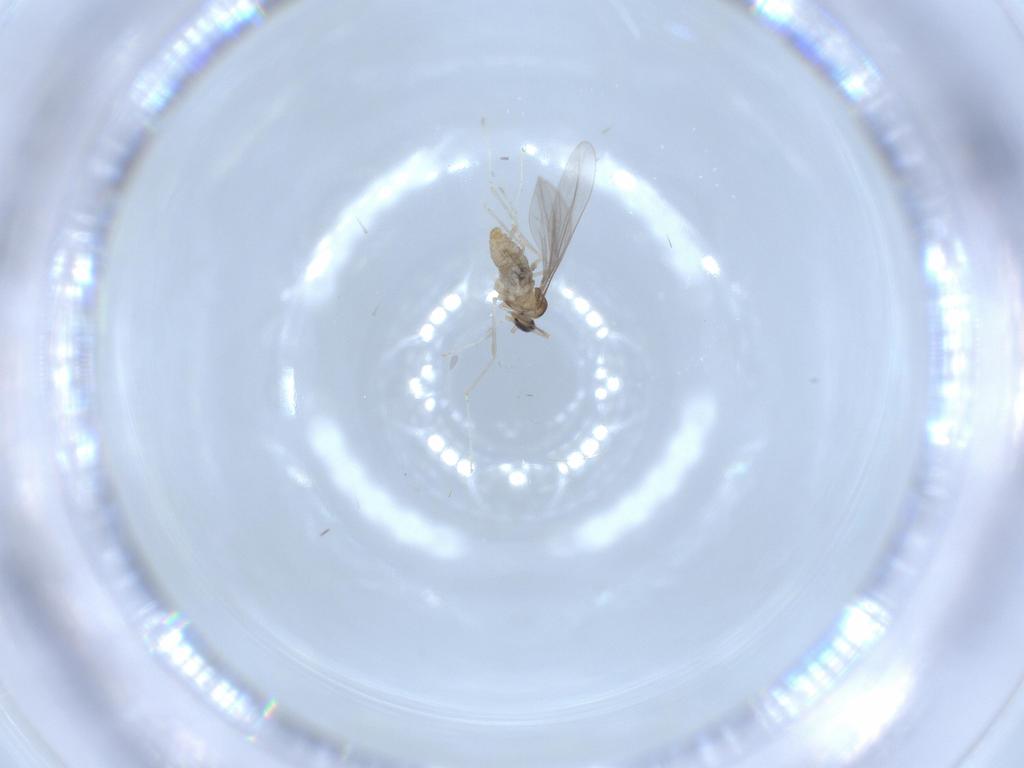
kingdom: Animalia
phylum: Arthropoda
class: Insecta
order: Diptera
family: Cecidomyiidae
